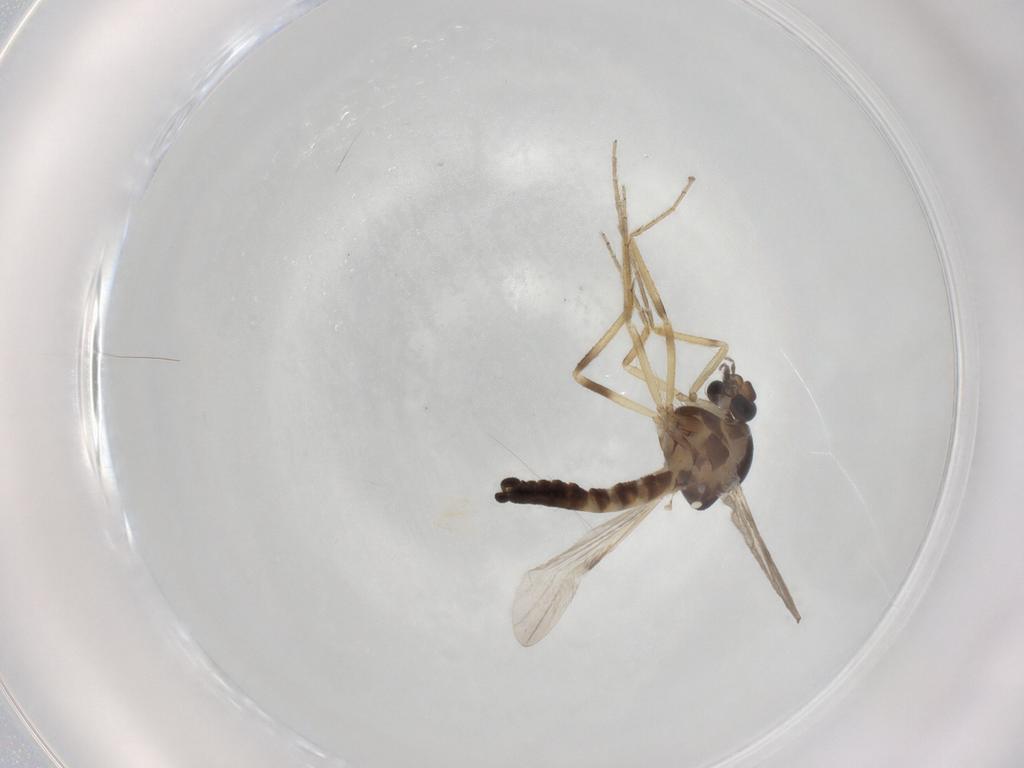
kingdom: Animalia
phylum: Arthropoda
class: Insecta
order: Diptera
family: Ceratopogonidae
